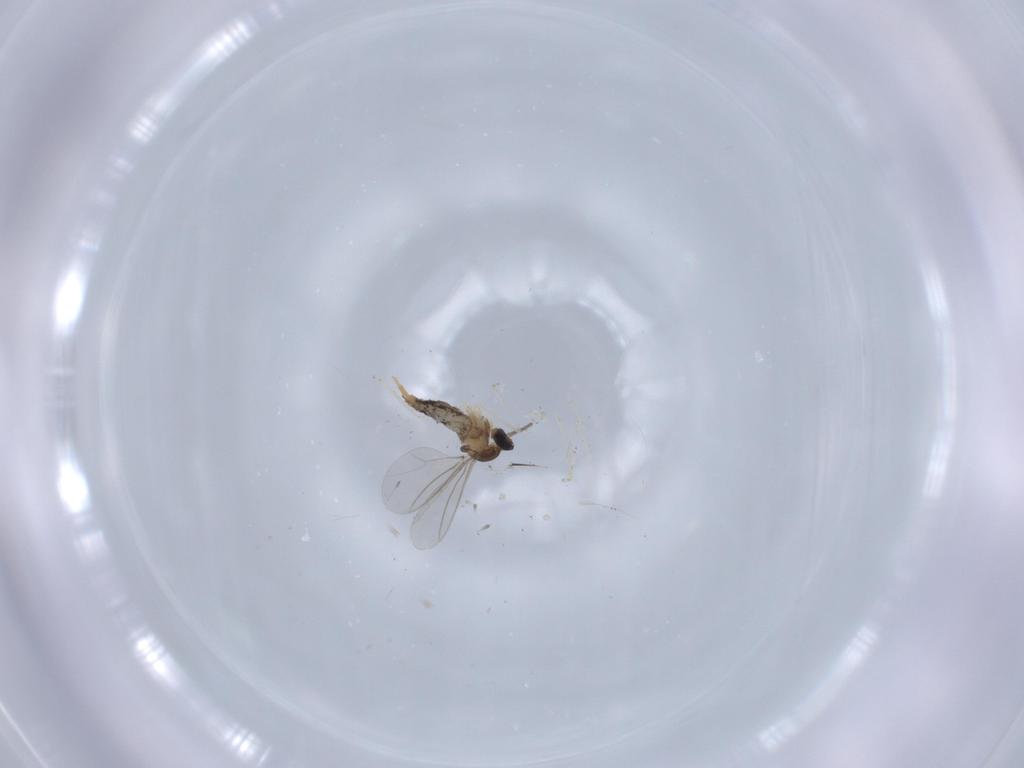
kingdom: Animalia
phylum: Arthropoda
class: Insecta
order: Diptera
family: Cecidomyiidae
